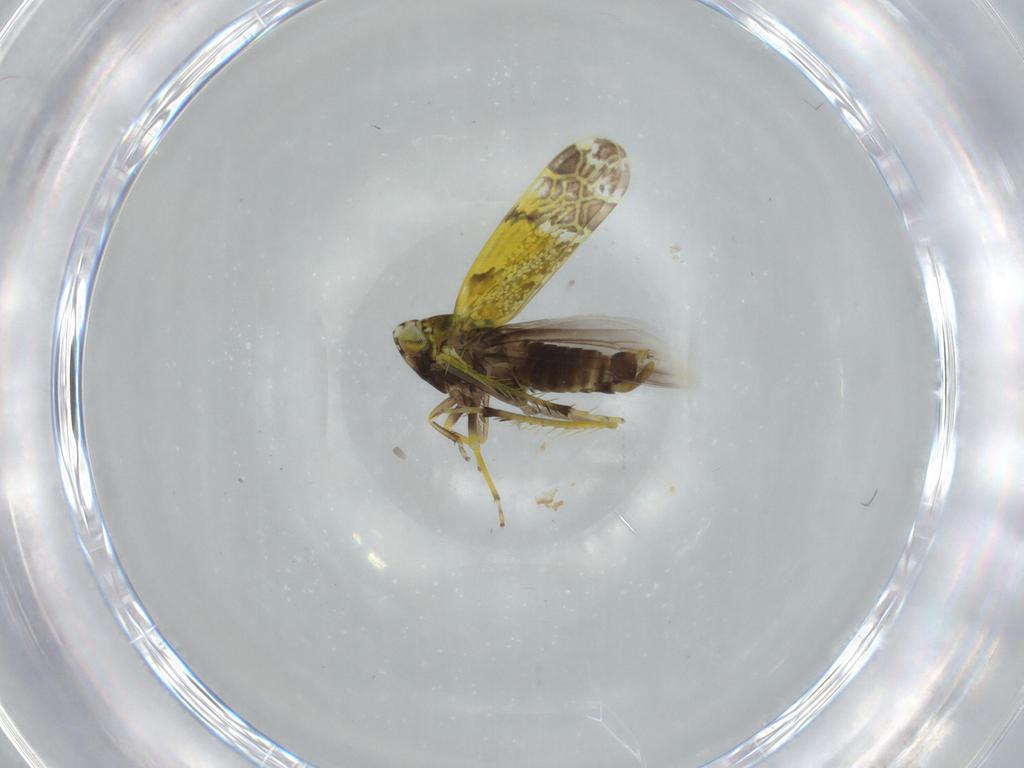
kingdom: Animalia
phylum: Arthropoda
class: Insecta
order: Hemiptera
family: Cicadellidae
